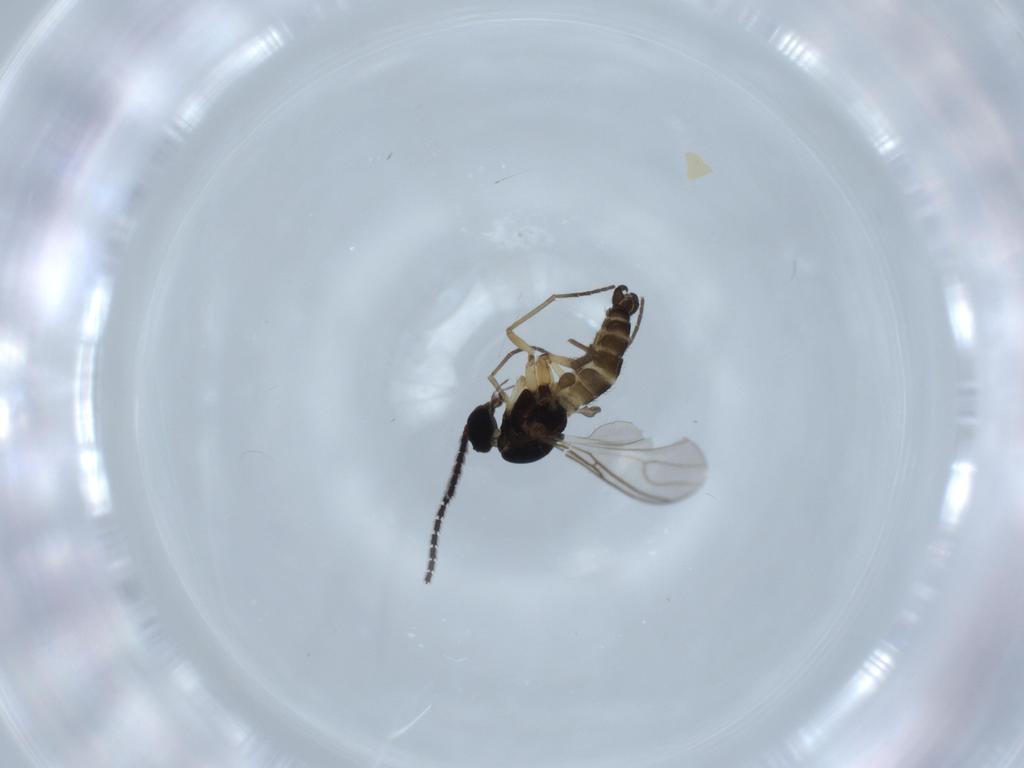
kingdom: Animalia
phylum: Arthropoda
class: Insecta
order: Diptera
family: Sciaridae
